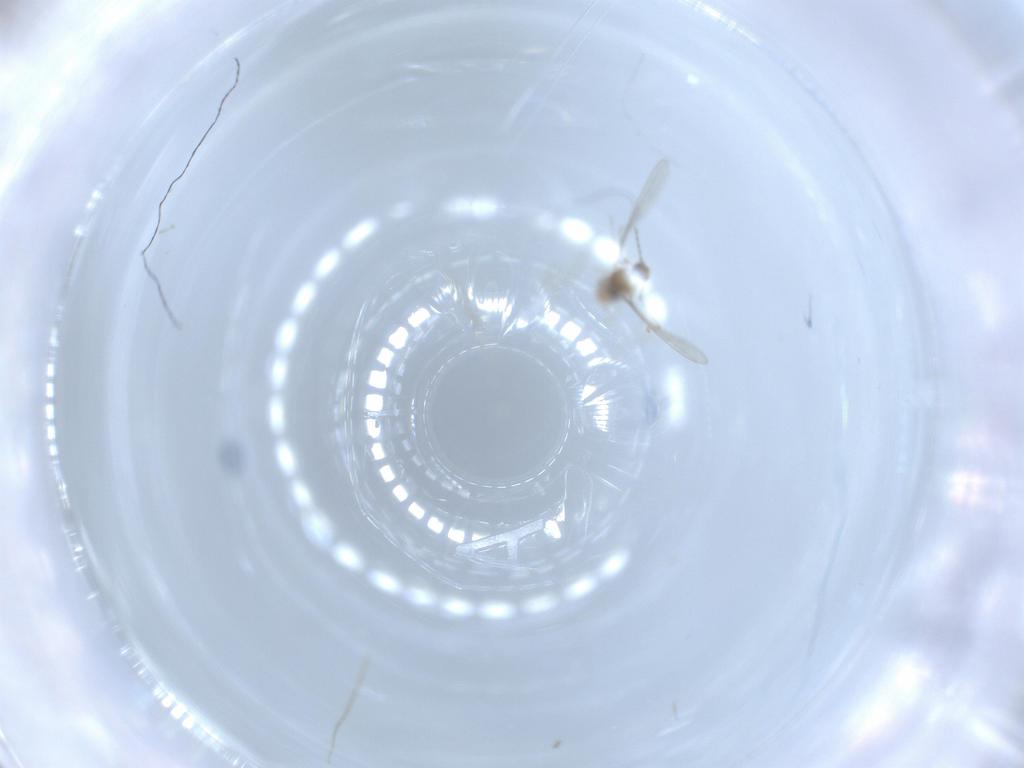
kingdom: Animalia
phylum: Arthropoda
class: Insecta
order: Diptera
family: Cecidomyiidae
